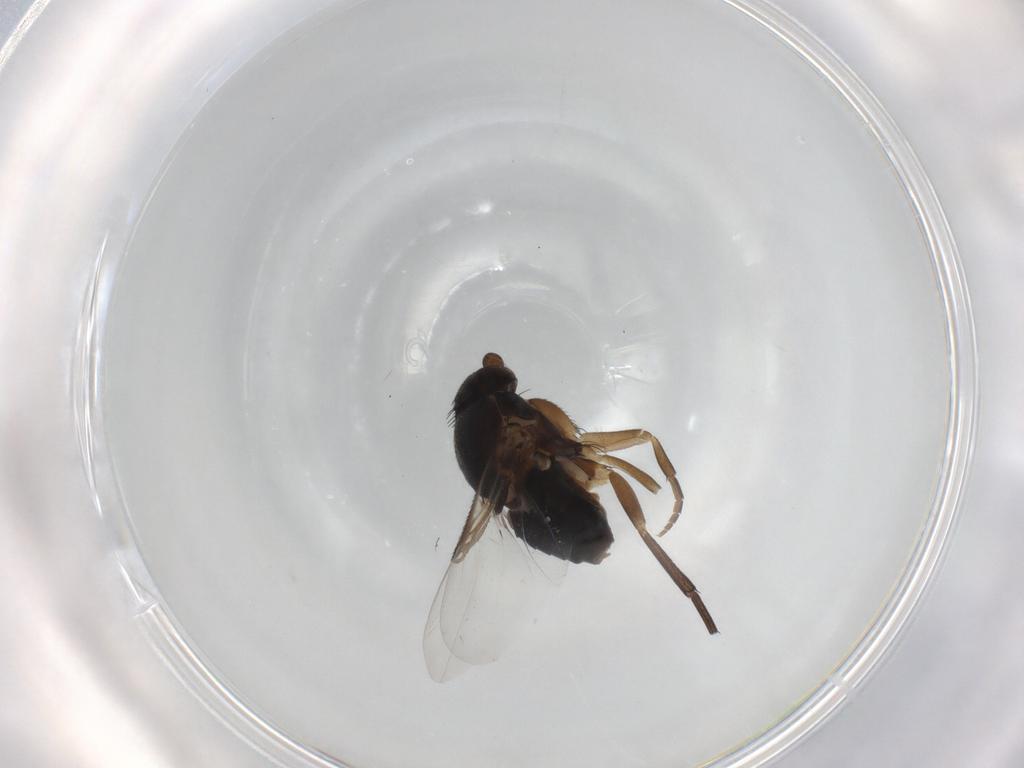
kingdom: Animalia
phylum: Arthropoda
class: Insecta
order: Diptera
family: Phoridae
